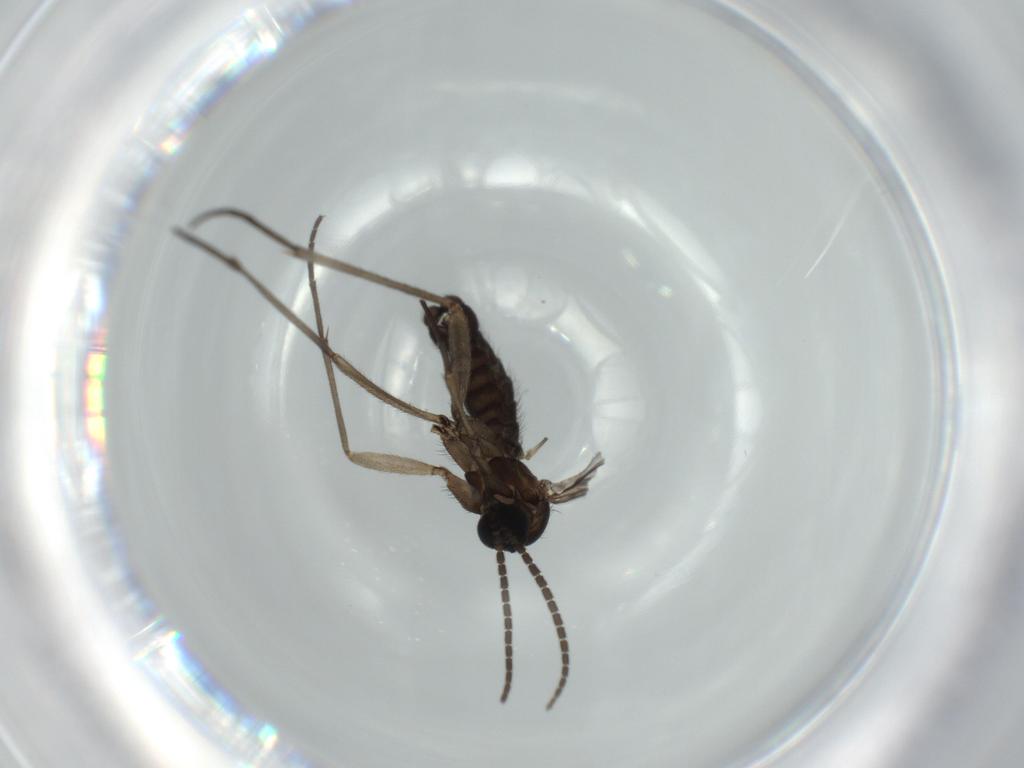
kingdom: Animalia
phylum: Arthropoda
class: Insecta
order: Diptera
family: Sciaridae
